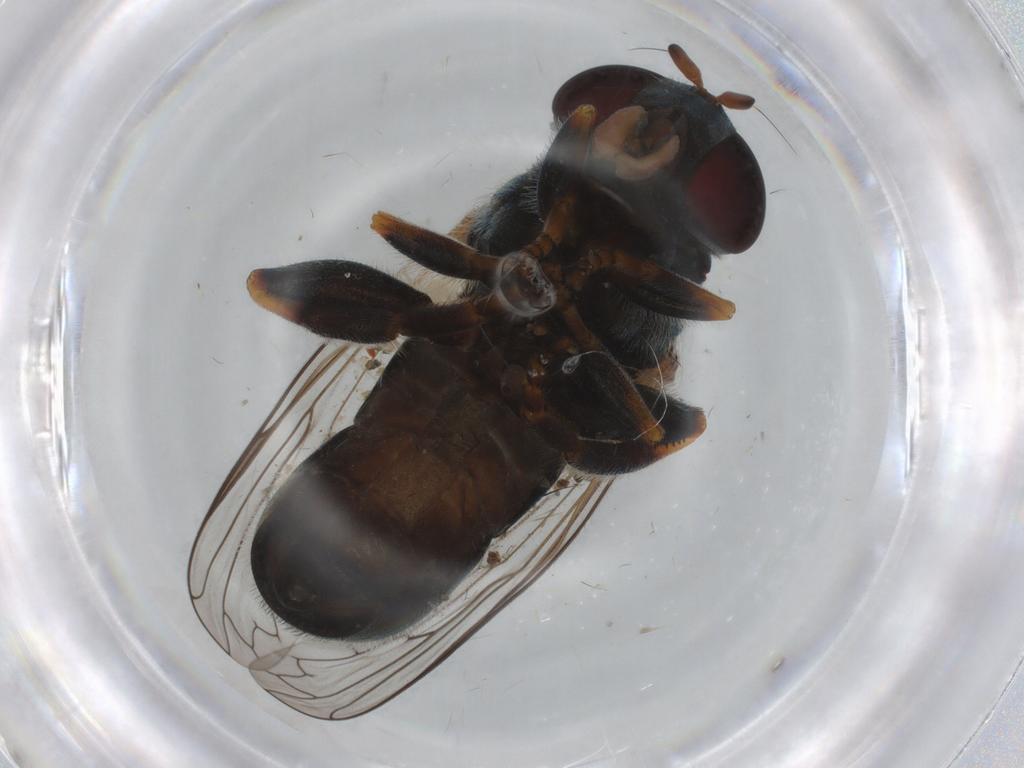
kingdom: Animalia
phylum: Arthropoda
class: Insecta
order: Diptera
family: Syrphidae
